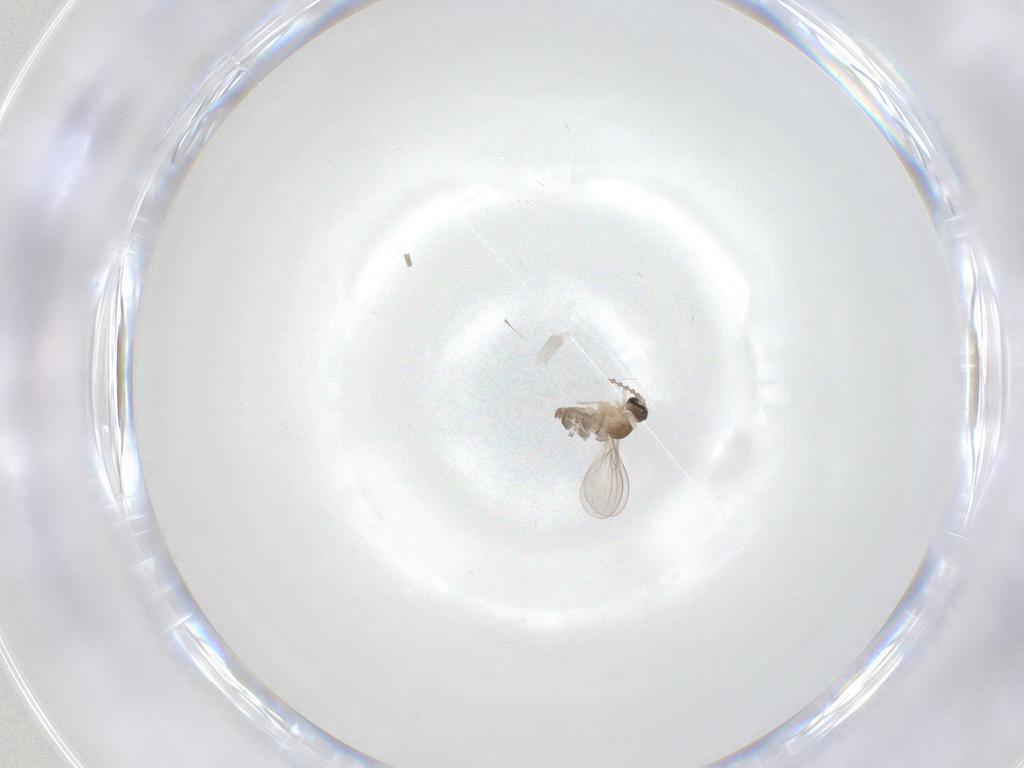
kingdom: Animalia
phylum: Arthropoda
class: Insecta
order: Diptera
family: Cecidomyiidae
